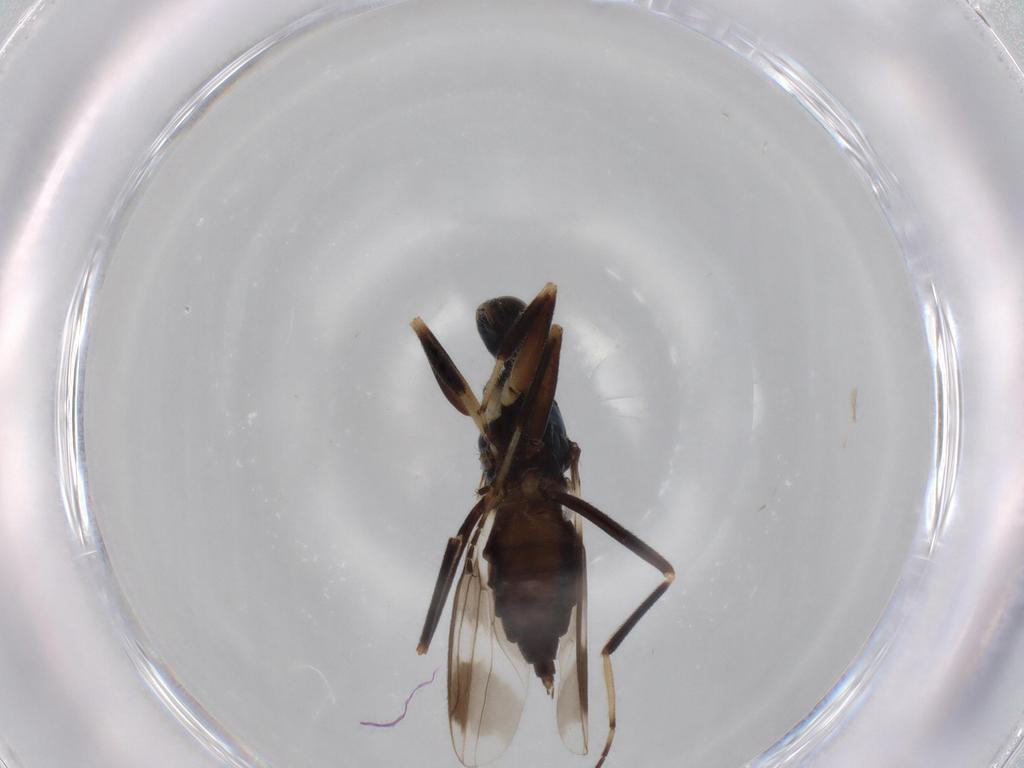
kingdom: Animalia
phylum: Arthropoda
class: Insecta
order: Diptera
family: Hybotidae
